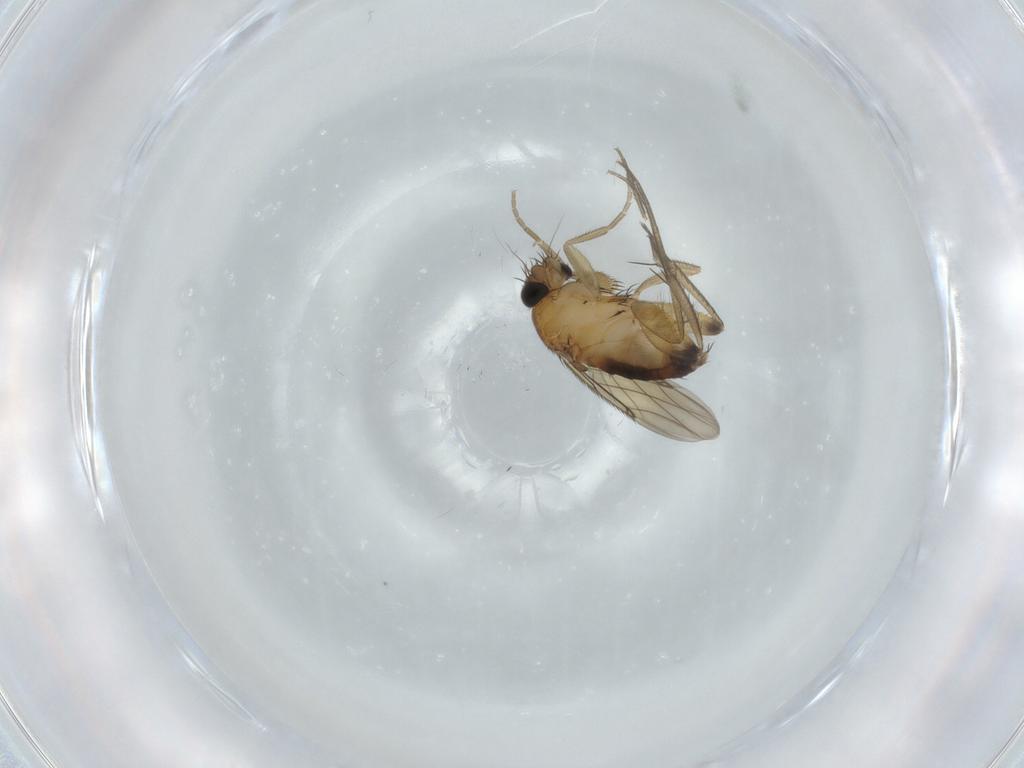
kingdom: Animalia
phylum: Arthropoda
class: Insecta
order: Diptera
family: Phoridae
